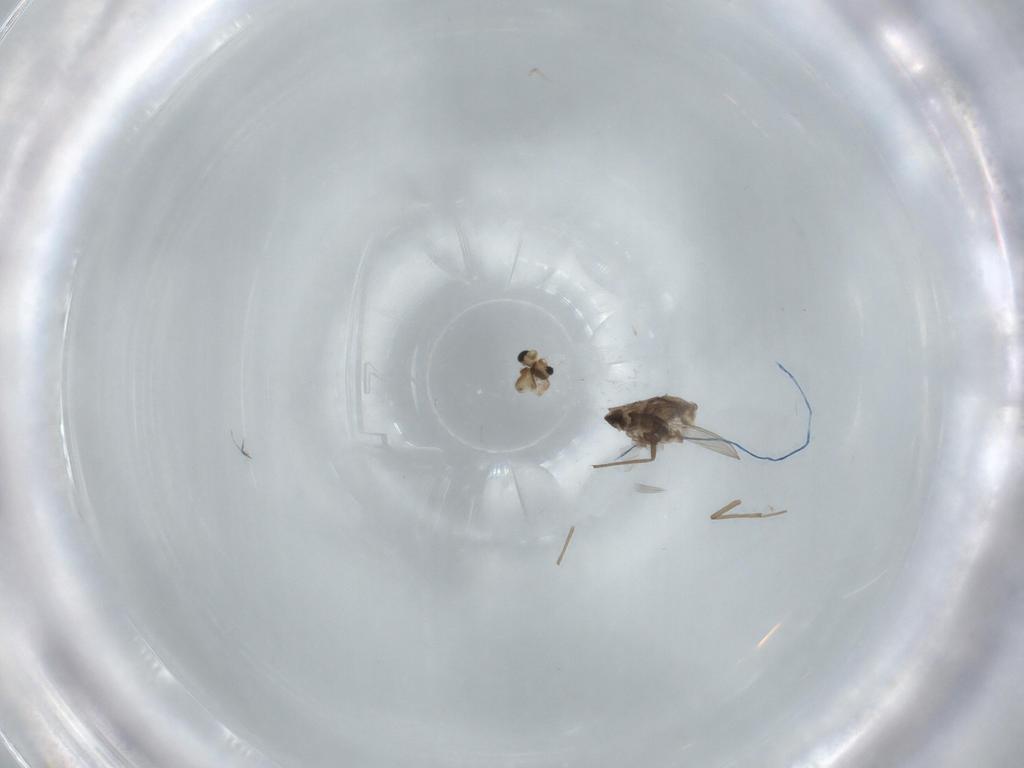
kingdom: Animalia
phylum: Arthropoda
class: Insecta
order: Diptera
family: Chironomidae
